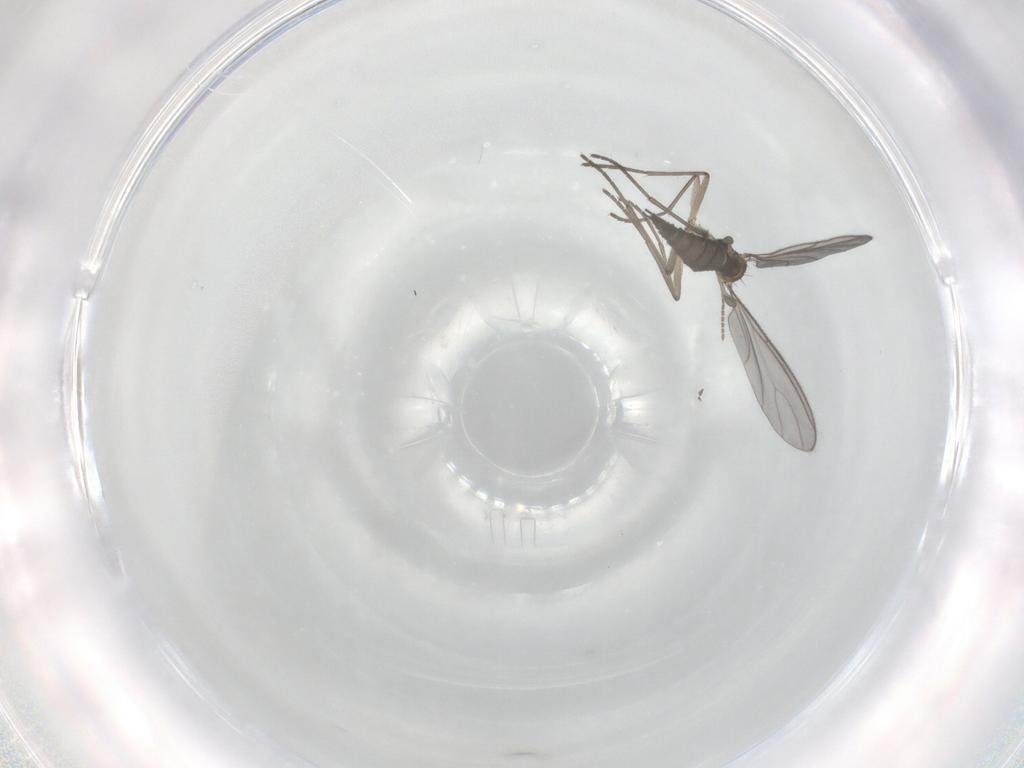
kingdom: Animalia
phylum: Arthropoda
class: Insecta
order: Diptera
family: Sciaridae
